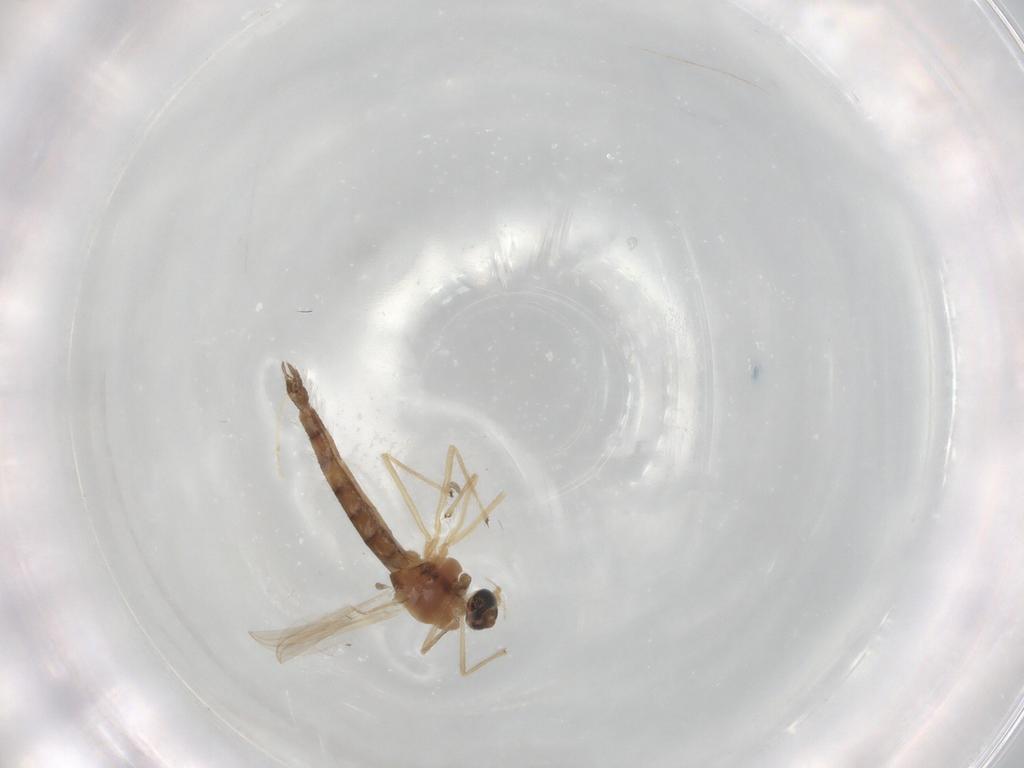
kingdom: Animalia
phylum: Arthropoda
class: Insecta
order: Diptera
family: Chironomidae
